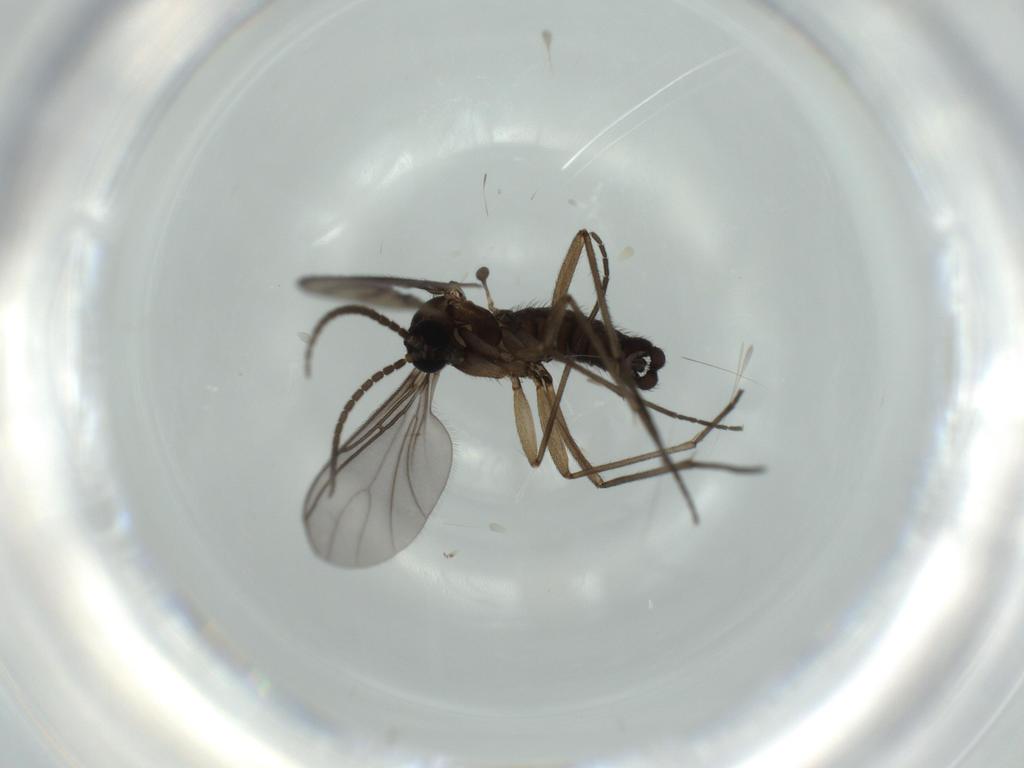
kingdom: Animalia
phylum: Arthropoda
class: Insecta
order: Diptera
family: Sciaridae
